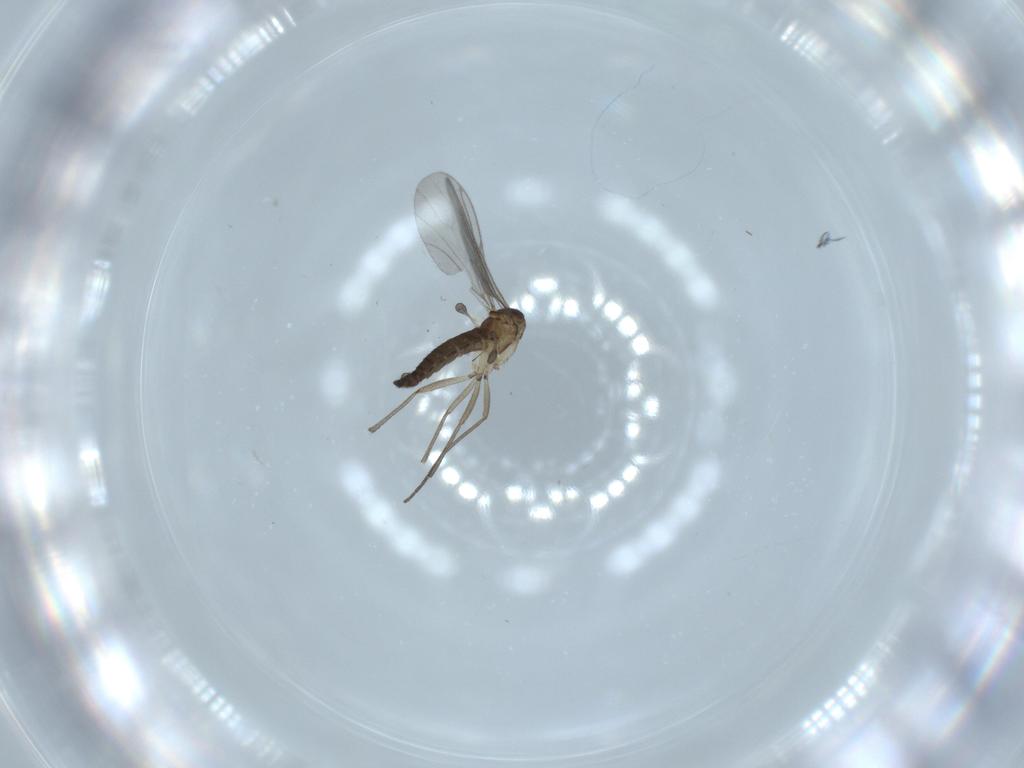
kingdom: Animalia
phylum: Arthropoda
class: Insecta
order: Diptera
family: Sciaridae
